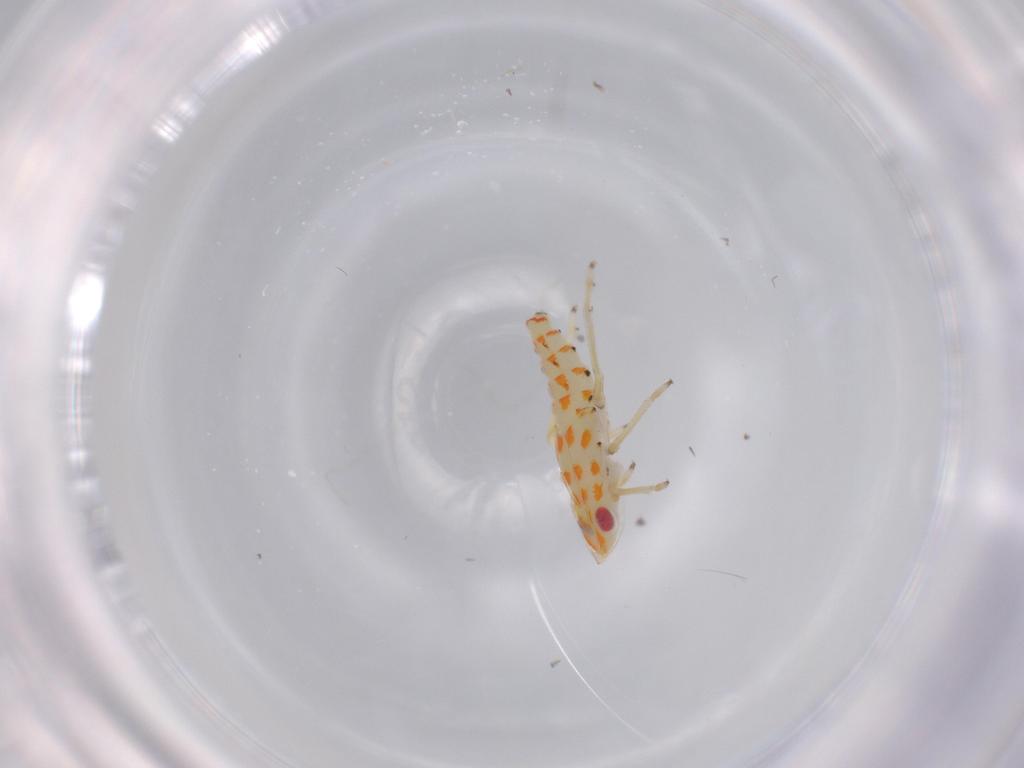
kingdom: Animalia
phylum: Arthropoda
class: Insecta
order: Hemiptera
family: Tropiduchidae
